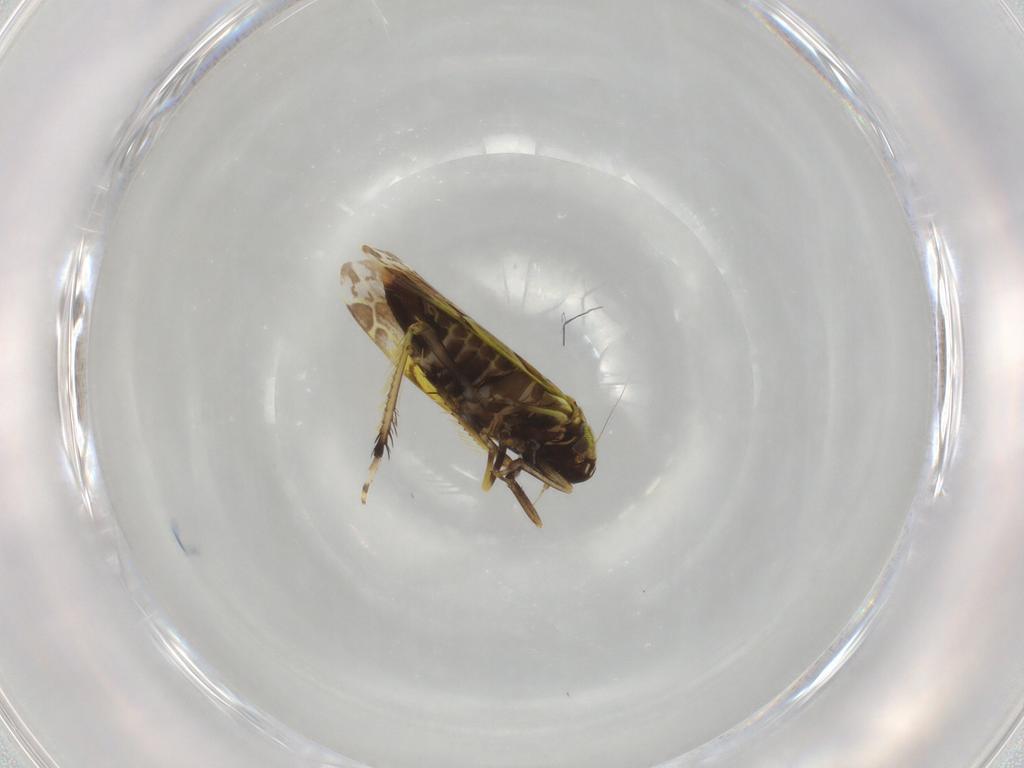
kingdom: Animalia
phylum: Arthropoda
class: Insecta
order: Hemiptera
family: Cicadellidae
